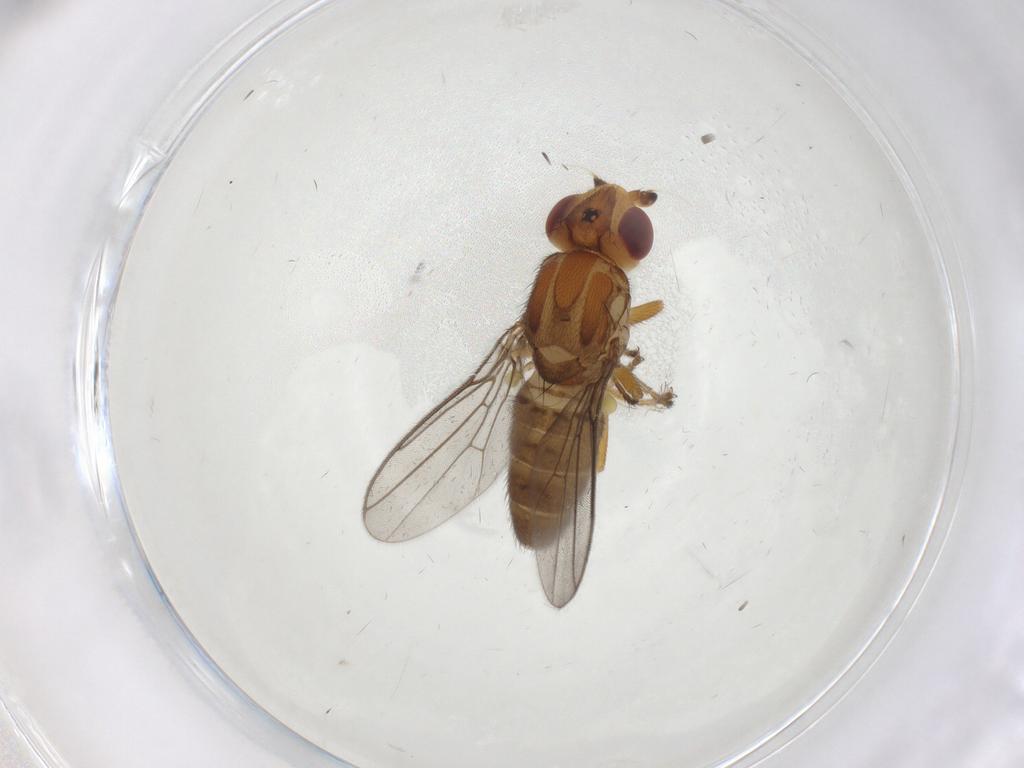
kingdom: Animalia
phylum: Arthropoda
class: Insecta
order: Diptera
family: Chloropidae
